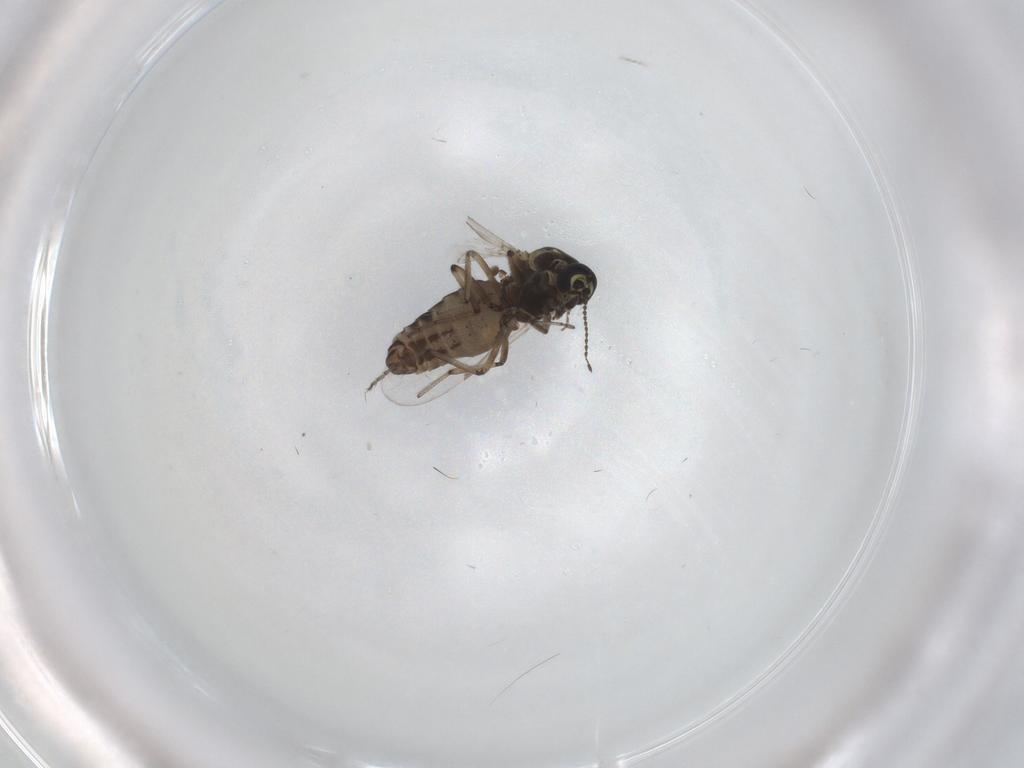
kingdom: Animalia
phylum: Arthropoda
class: Insecta
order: Diptera
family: Ceratopogonidae
